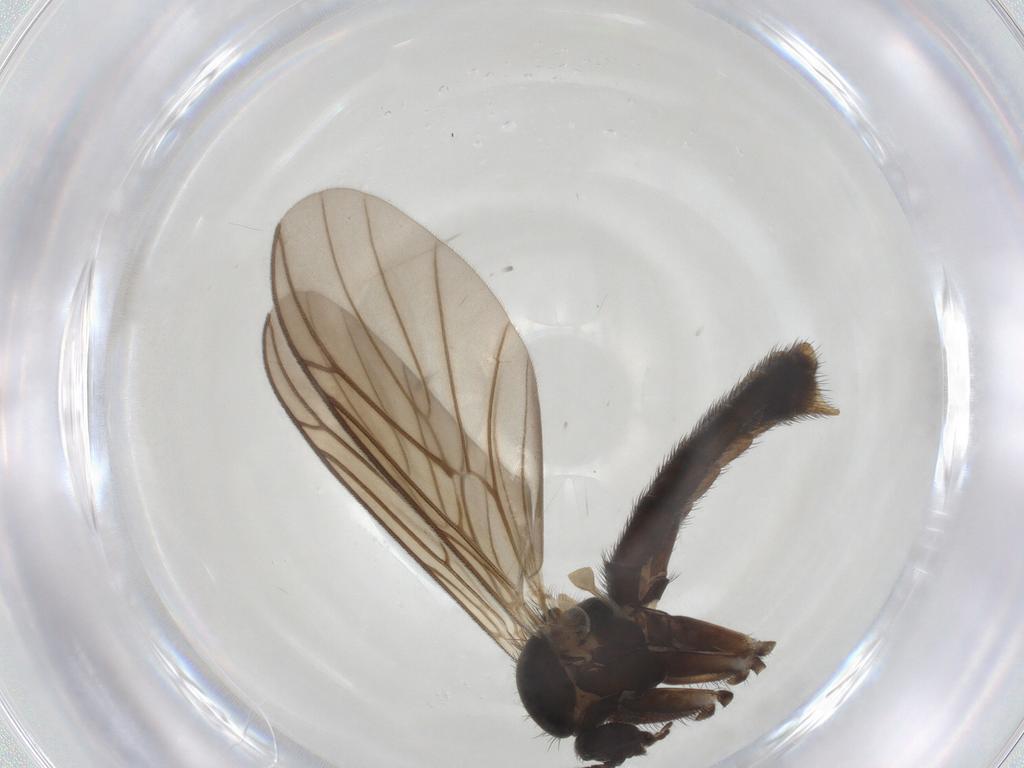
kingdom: Animalia
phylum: Arthropoda
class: Insecta
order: Diptera
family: Keroplatidae
